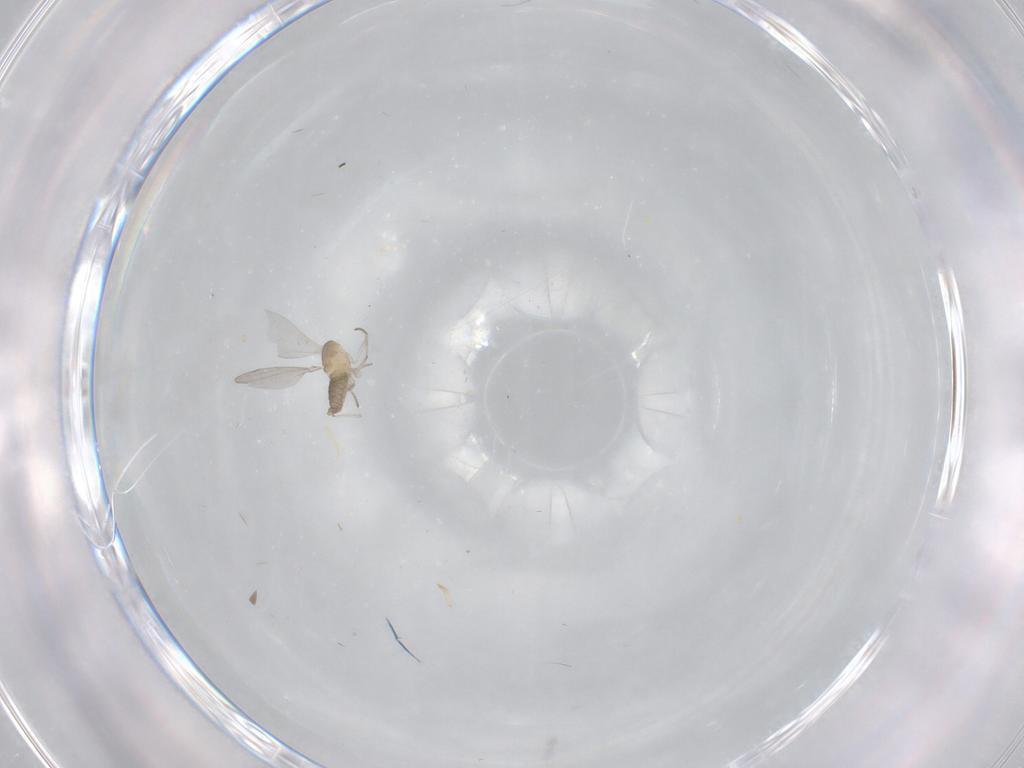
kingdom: Animalia
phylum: Arthropoda
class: Insecta
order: Diptera
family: Cecidomyiidae
